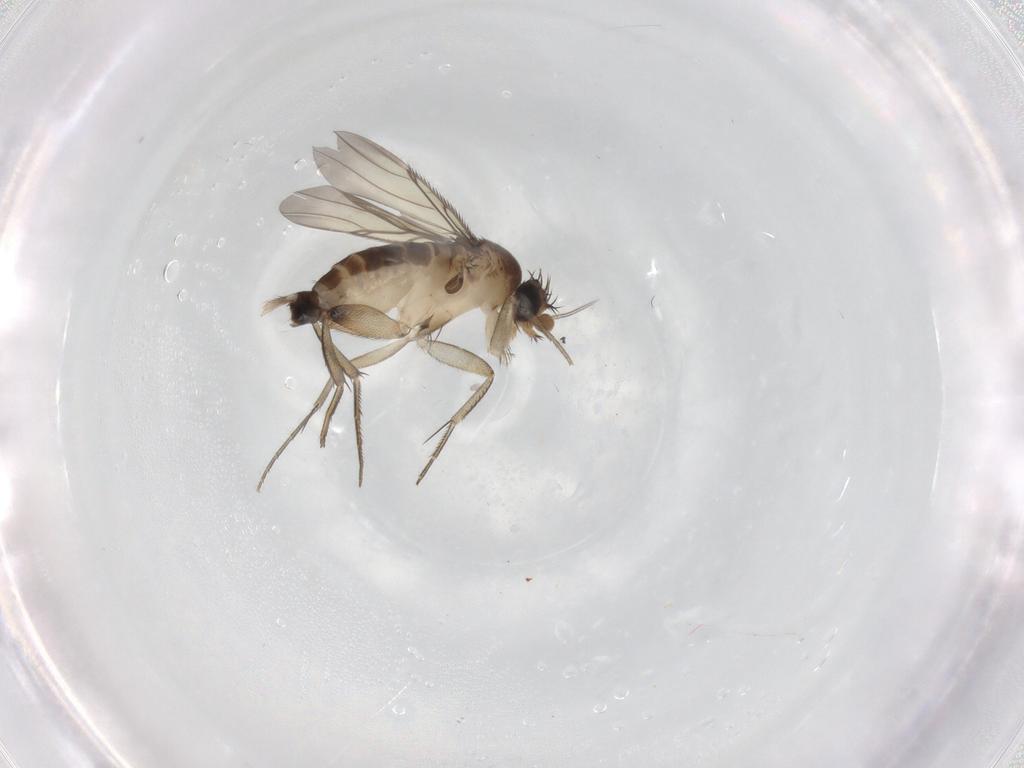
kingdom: Animalia
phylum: Arthropoda
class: Insecta
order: Diptera
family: Phoridae
